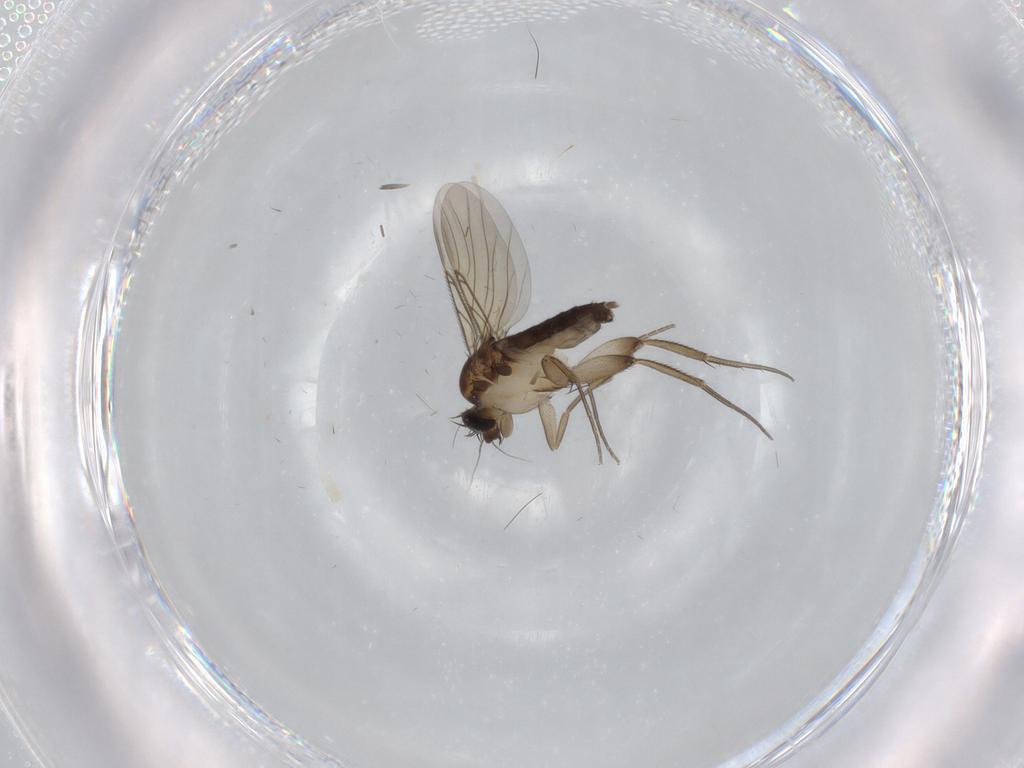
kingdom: Animalia
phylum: Arthropoda
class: Insecta
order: Diptera
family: Phoridae
